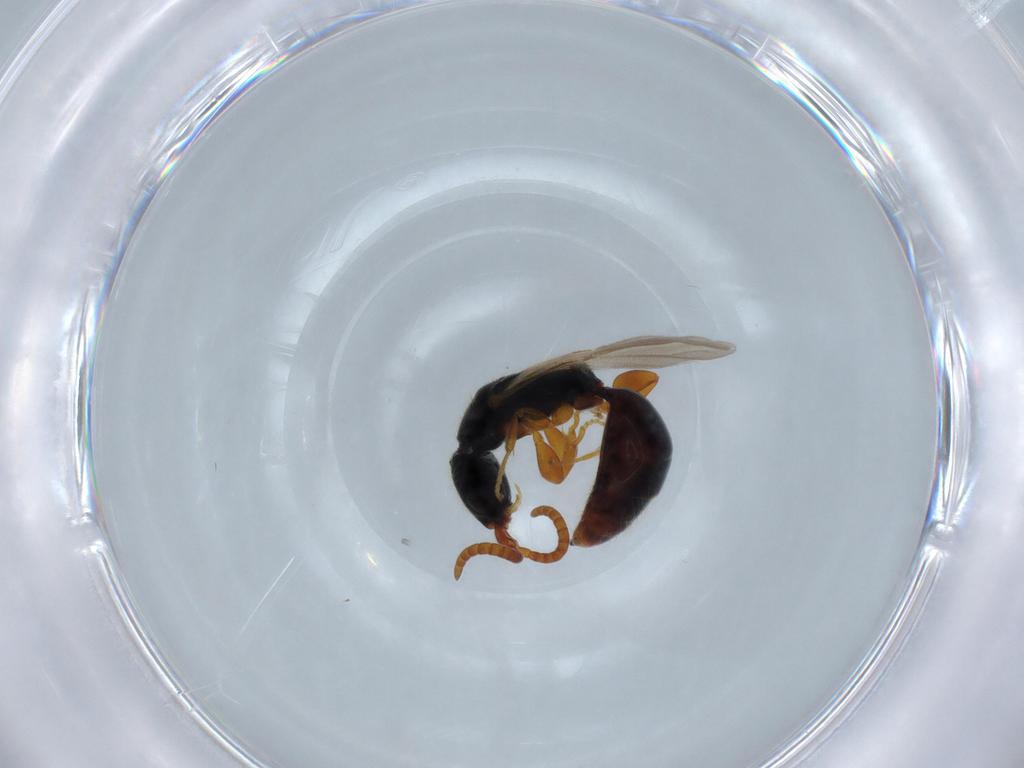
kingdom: Animalia
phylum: Arthropoda
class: Insecta
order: Hymenoptera
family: Bethylidae
